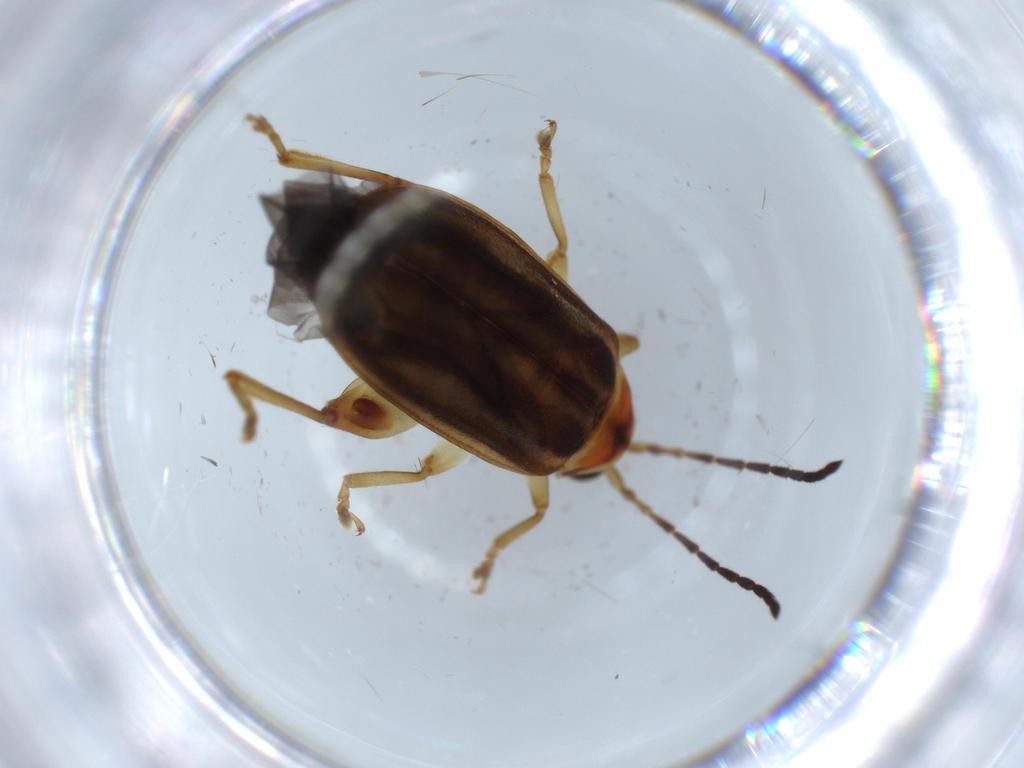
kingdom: Animalia
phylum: Arthropoda
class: Insecta
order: Coleoptera
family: Chrysomelidae
